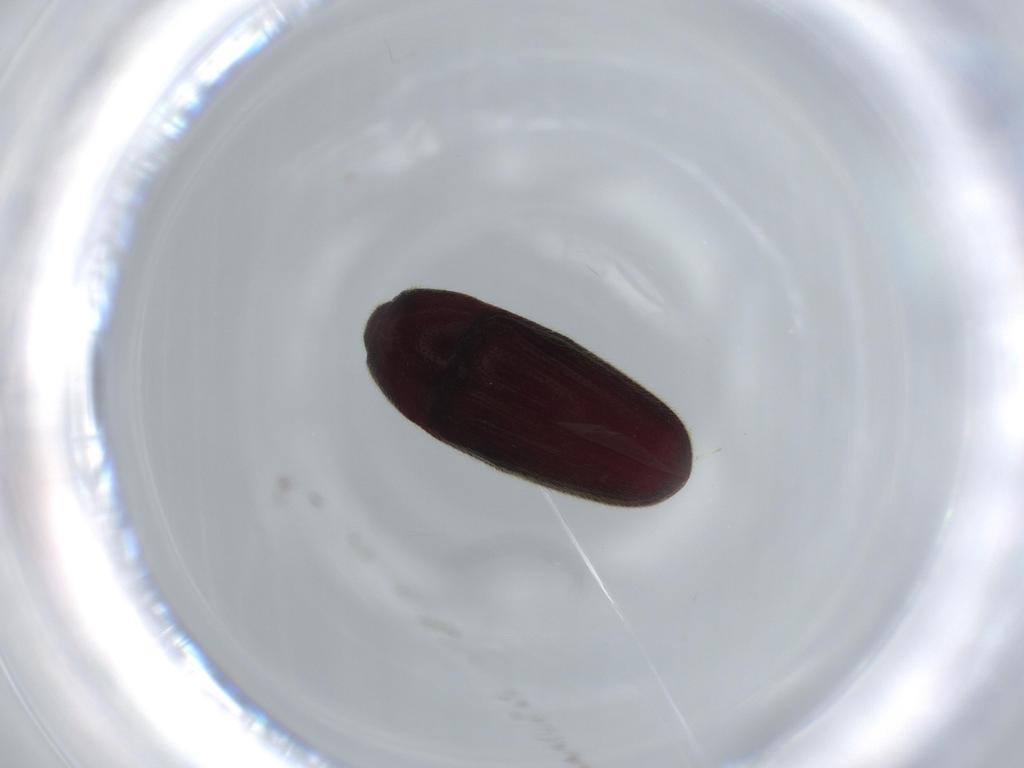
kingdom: Animalia
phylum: Arthropoda
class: Insecta
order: Coleoptera
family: Throscidae
